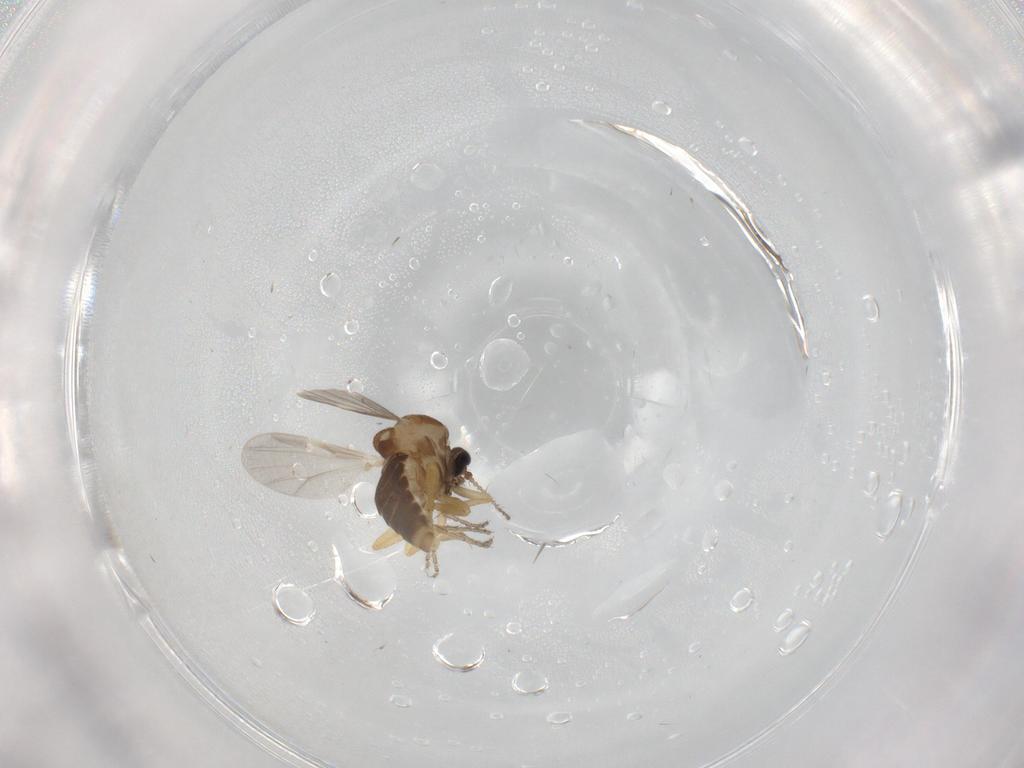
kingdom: Animalia
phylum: Arthropoda
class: Insecta
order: Diptera
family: Ceratopogonidae
